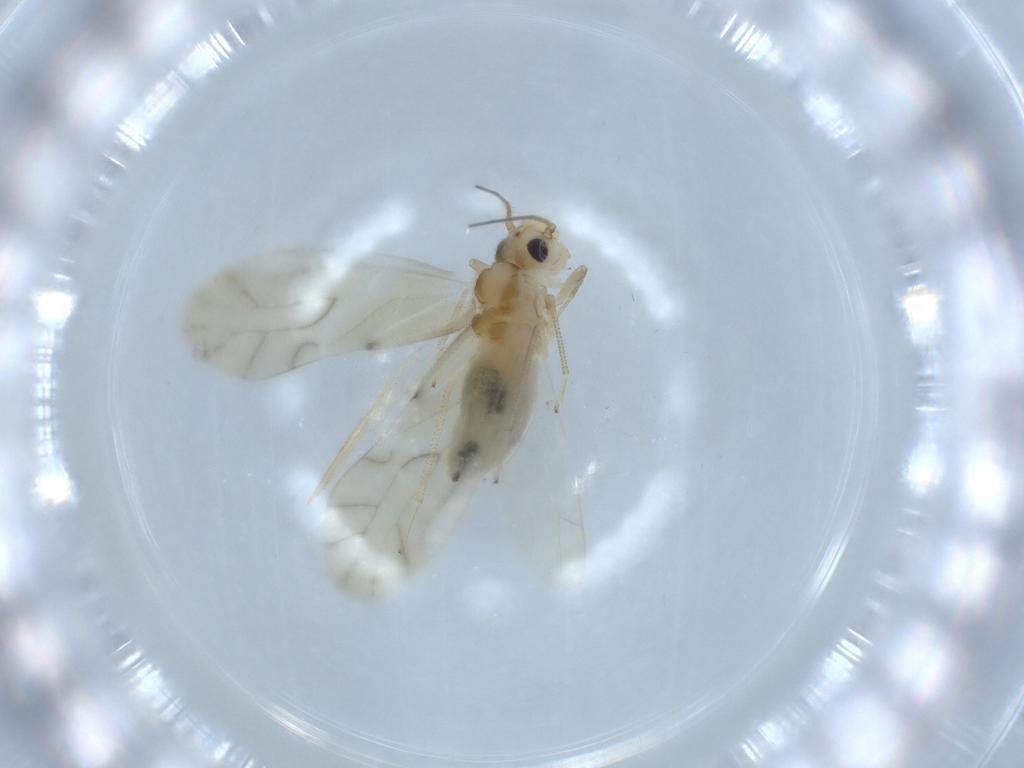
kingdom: Animalia
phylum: Arthropoda
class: Insecta
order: Psocodea
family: Caeciliusidae
